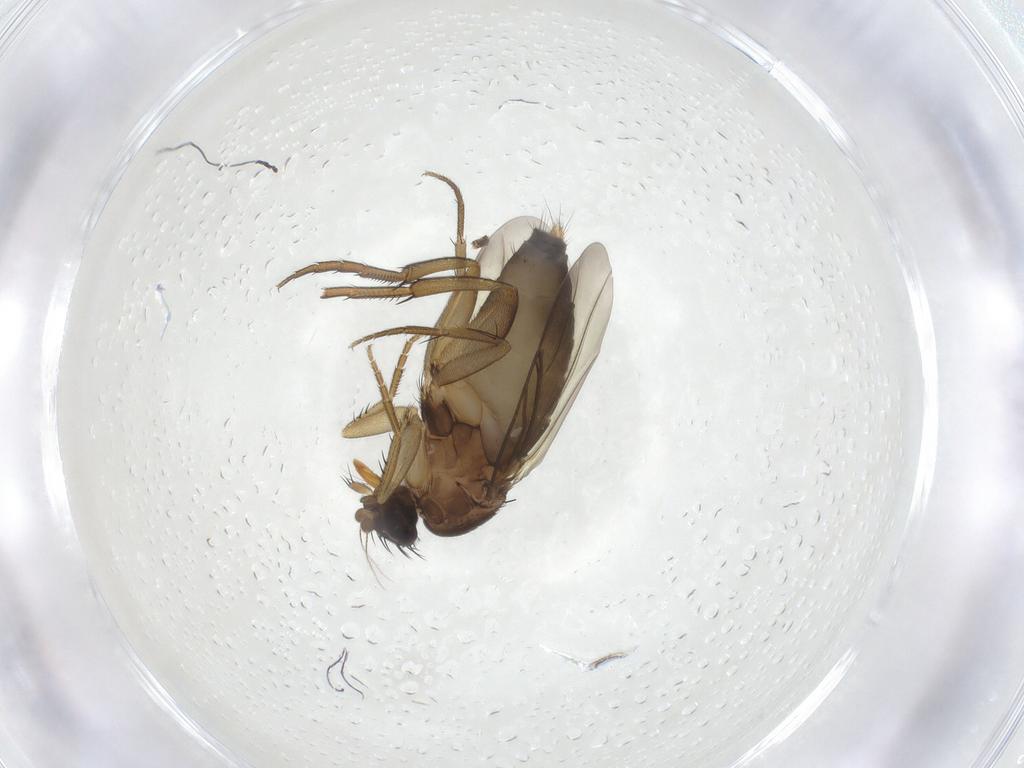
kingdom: Animalia
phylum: Arthropoda
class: Insecta
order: Diptera
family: Phoridae
